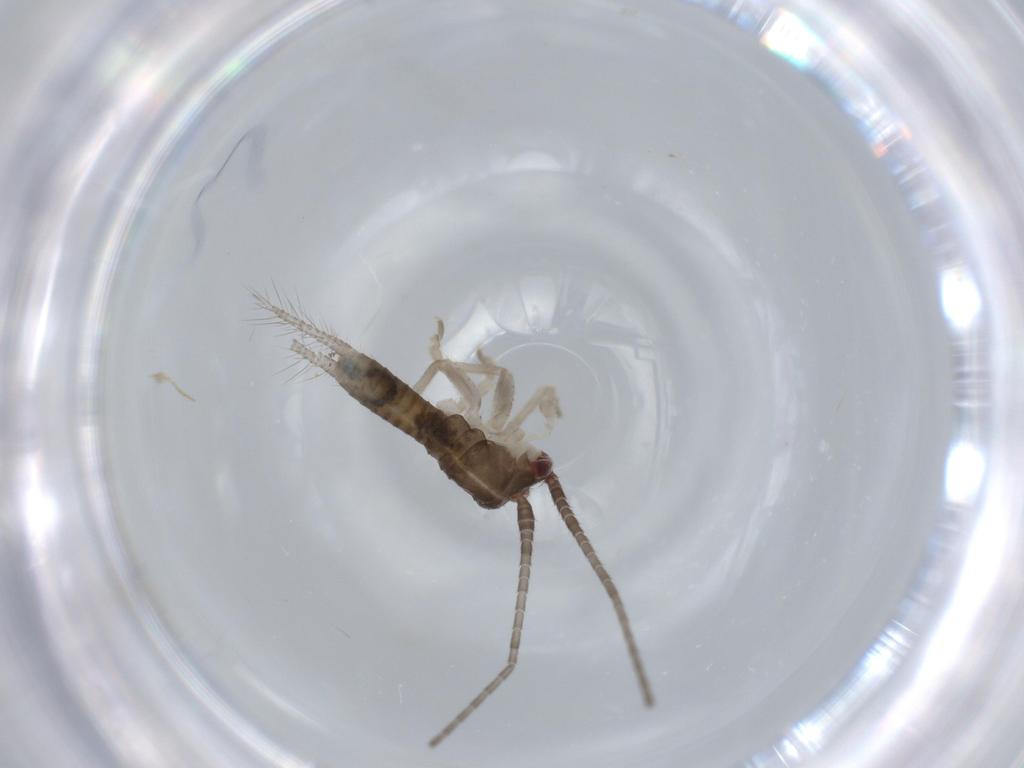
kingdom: Animalia
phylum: Arthropoda
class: Insecta
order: Orthoptera
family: Gryllidae
